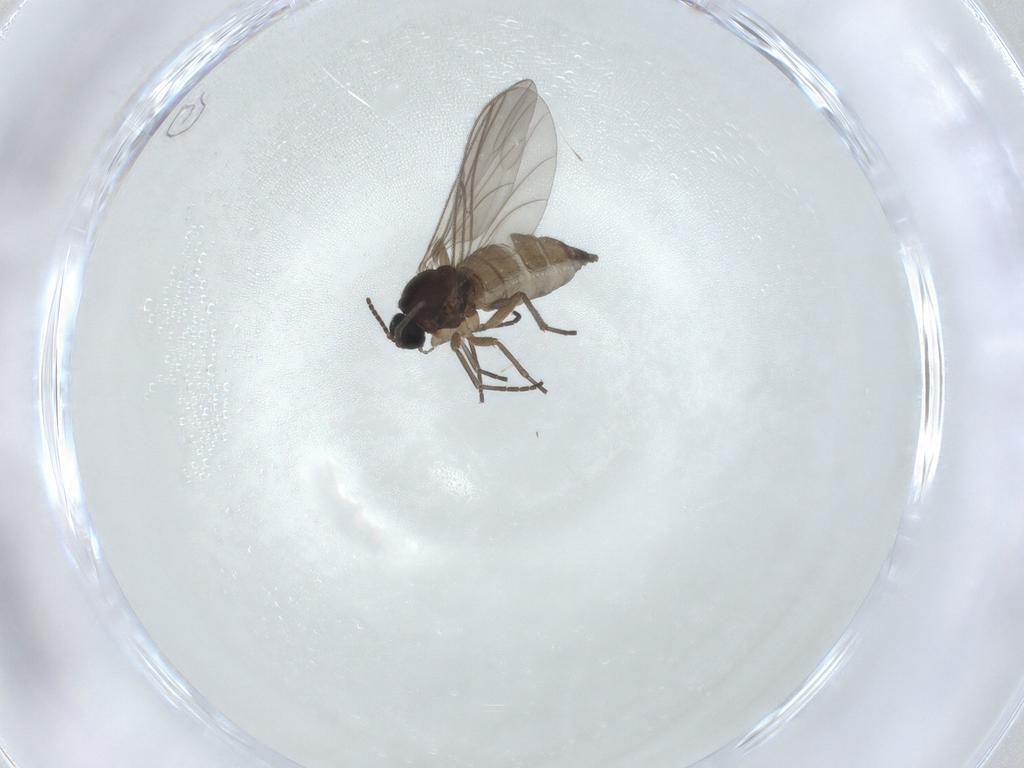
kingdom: Animalia
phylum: Arthropoda
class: Insecta
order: Diptera
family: Sciaridae
